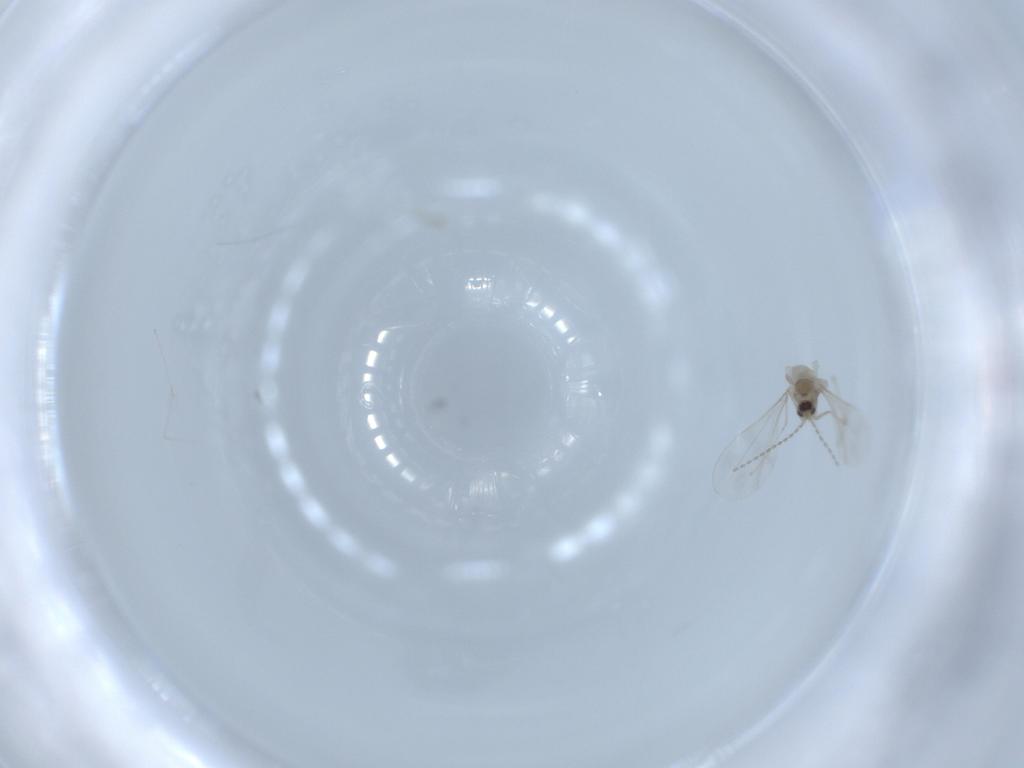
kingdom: Animalia
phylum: Arthropoda
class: Insecta
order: Diptera
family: Cecidomyiidae
